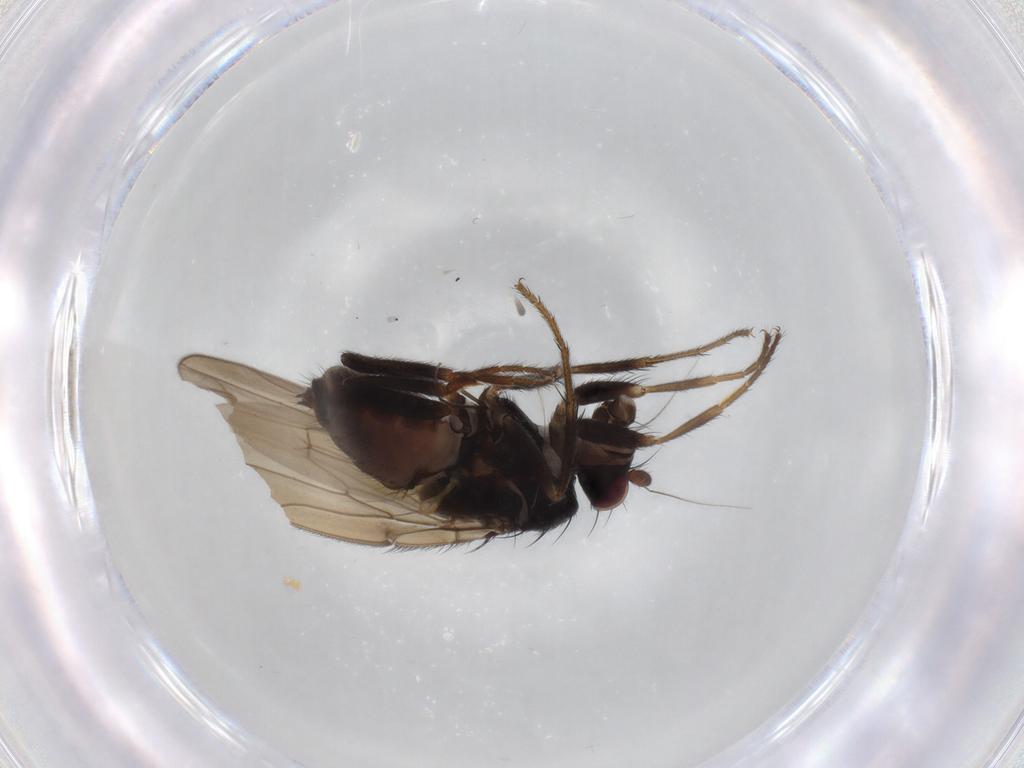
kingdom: Animalia
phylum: Arthropoda
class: Insecta
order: Diptera
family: Sphaeroceridae
